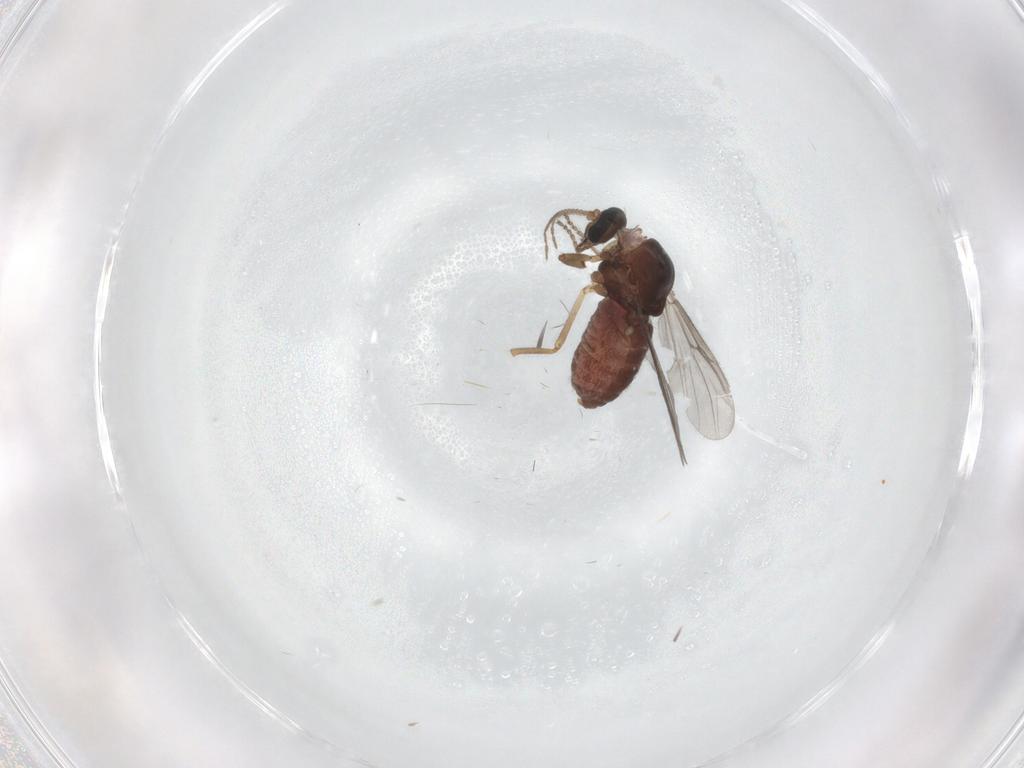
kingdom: Animalia
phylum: Arthropoda
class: Insecta
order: Diptera
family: Ceratopogonidae
